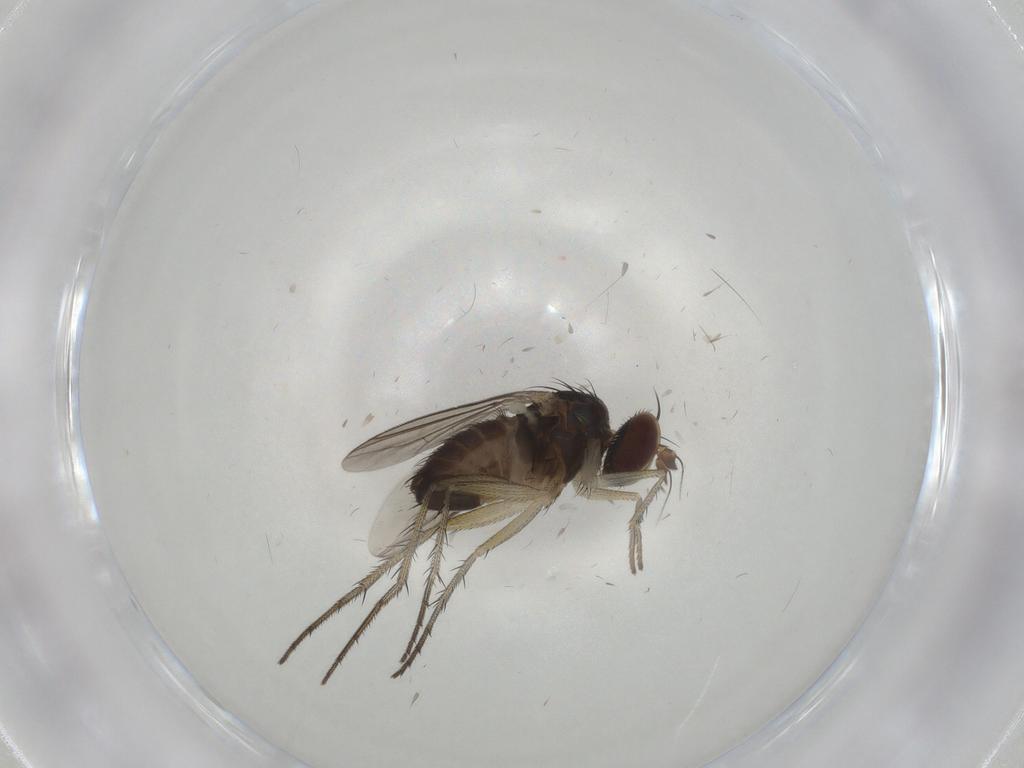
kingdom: Animalia
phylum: Arthropoda
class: Insecta
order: Diptera
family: Dolichopodidae
